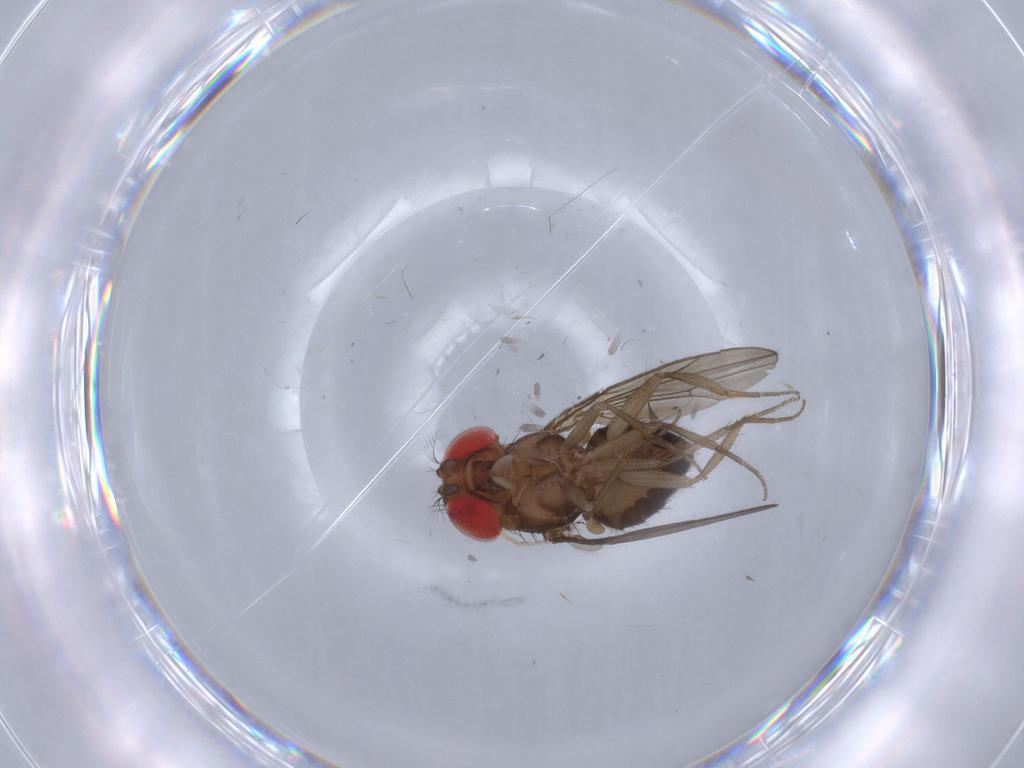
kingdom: Animalia
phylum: Arthropoda
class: Insecta
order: Diptera
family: Drosophilidae
